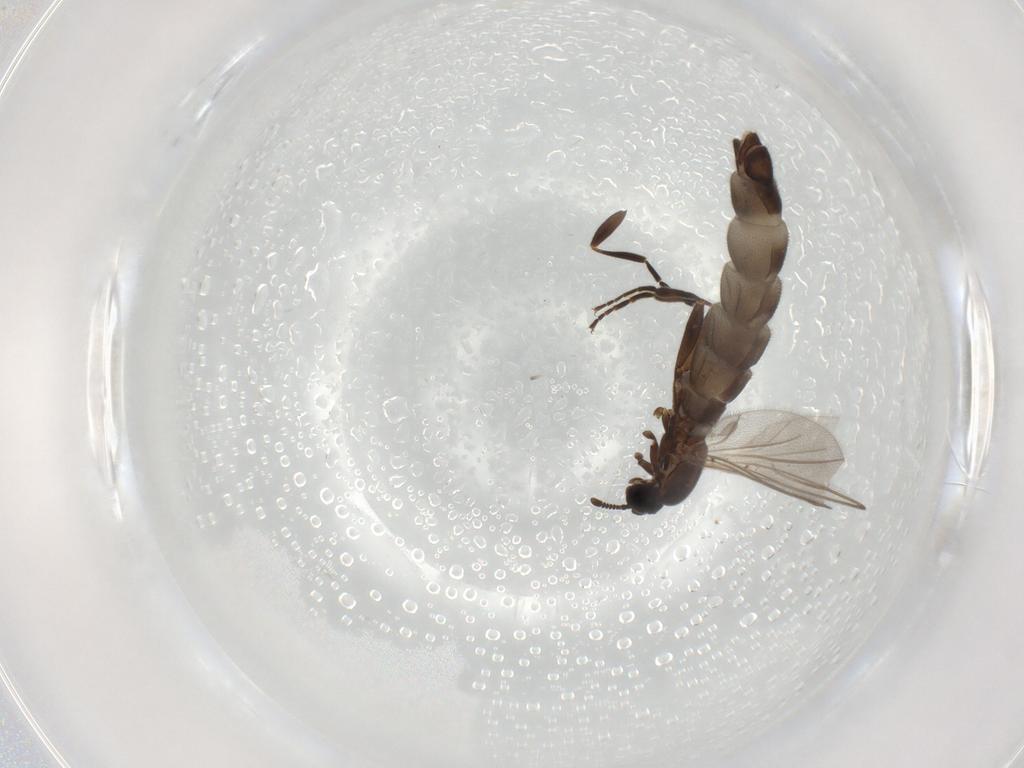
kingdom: Animalia
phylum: Arthropoda
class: Insecta
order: Diptera
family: Scatopsidae
